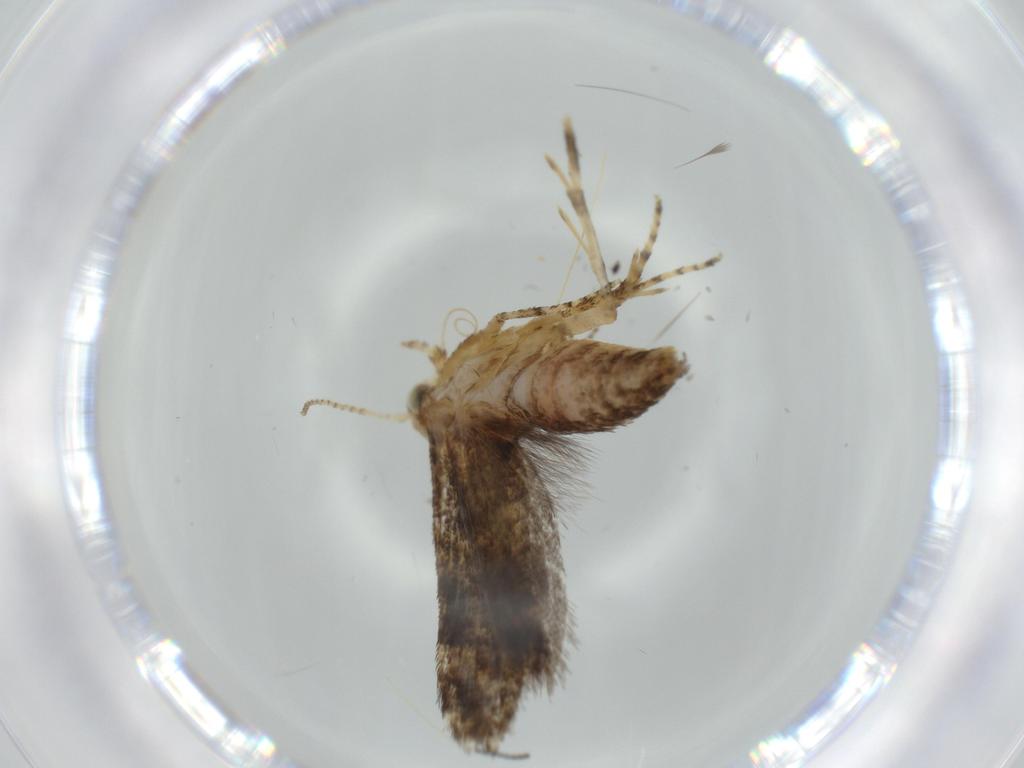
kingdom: Animalia
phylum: Arthropoda
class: Insecta
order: Lepidoptera
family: Glyphipterigidae
